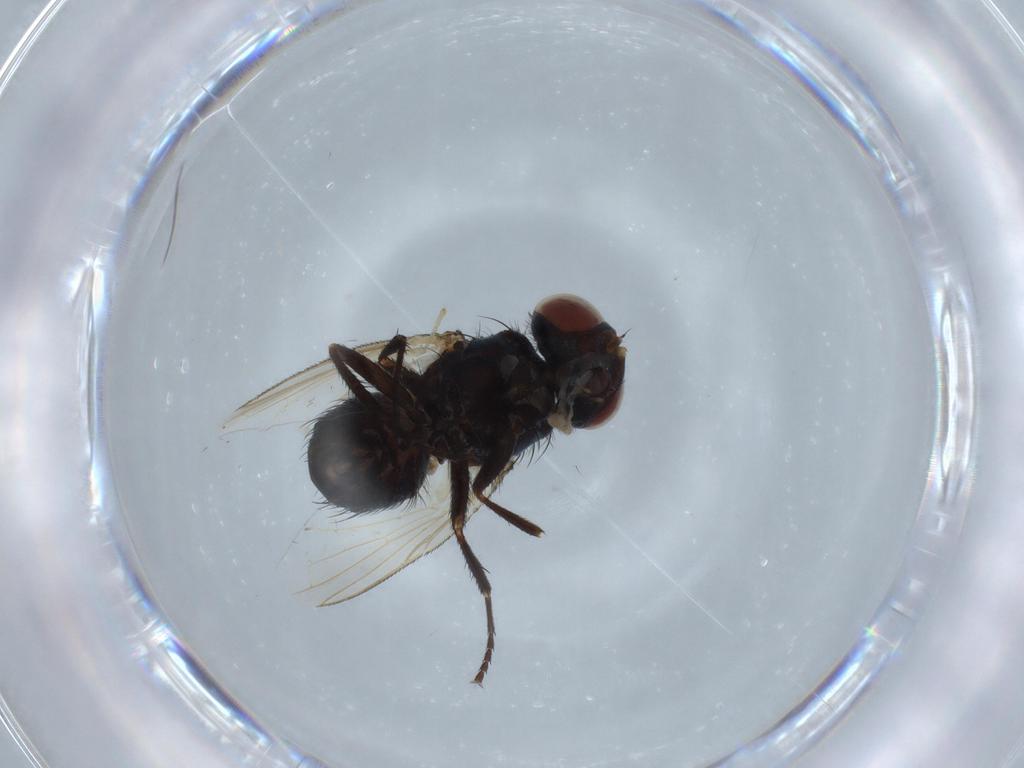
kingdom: Animalia
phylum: Arthropoda
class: Insecta
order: Diptera
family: Tachinidae
